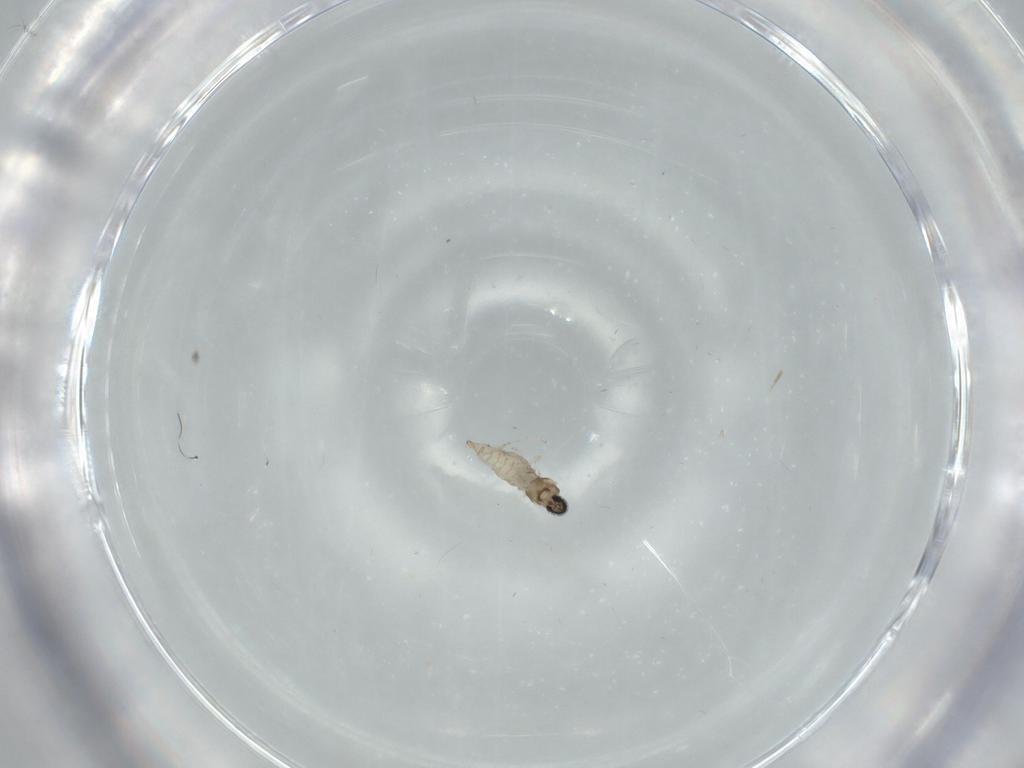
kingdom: Animalia
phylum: Arthropoda
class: Insecta
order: Diptera
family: Cecidomyiidae
